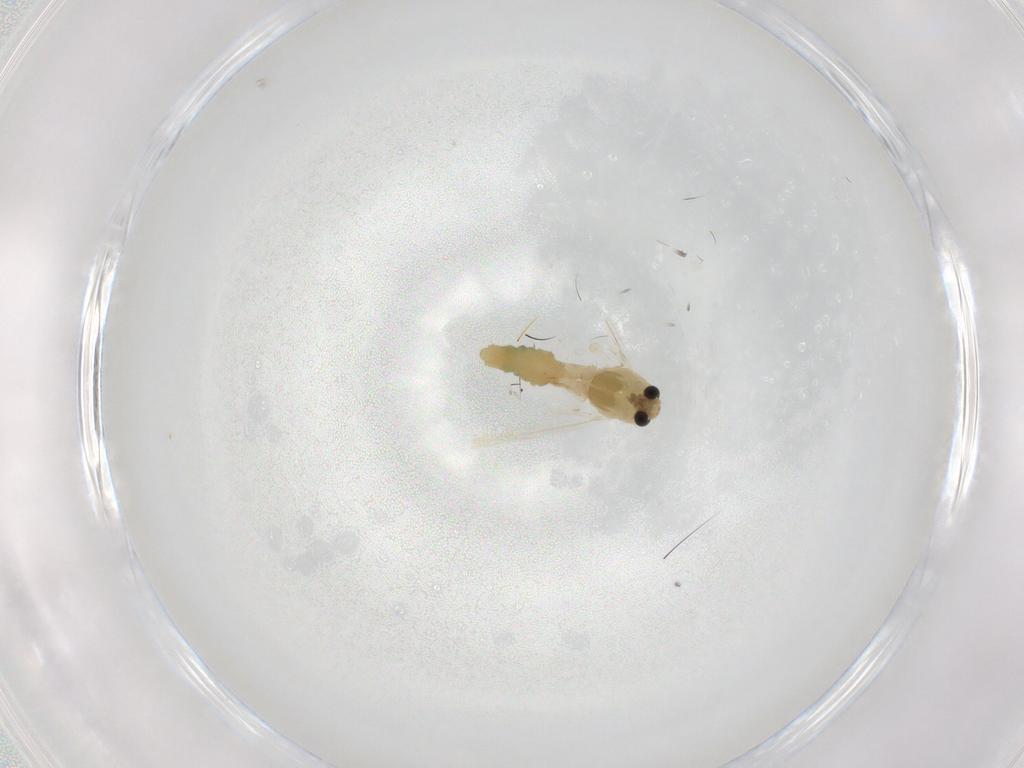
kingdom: Animalia
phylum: Arthropoda
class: Insecta
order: Diptera
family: Chironomidae
